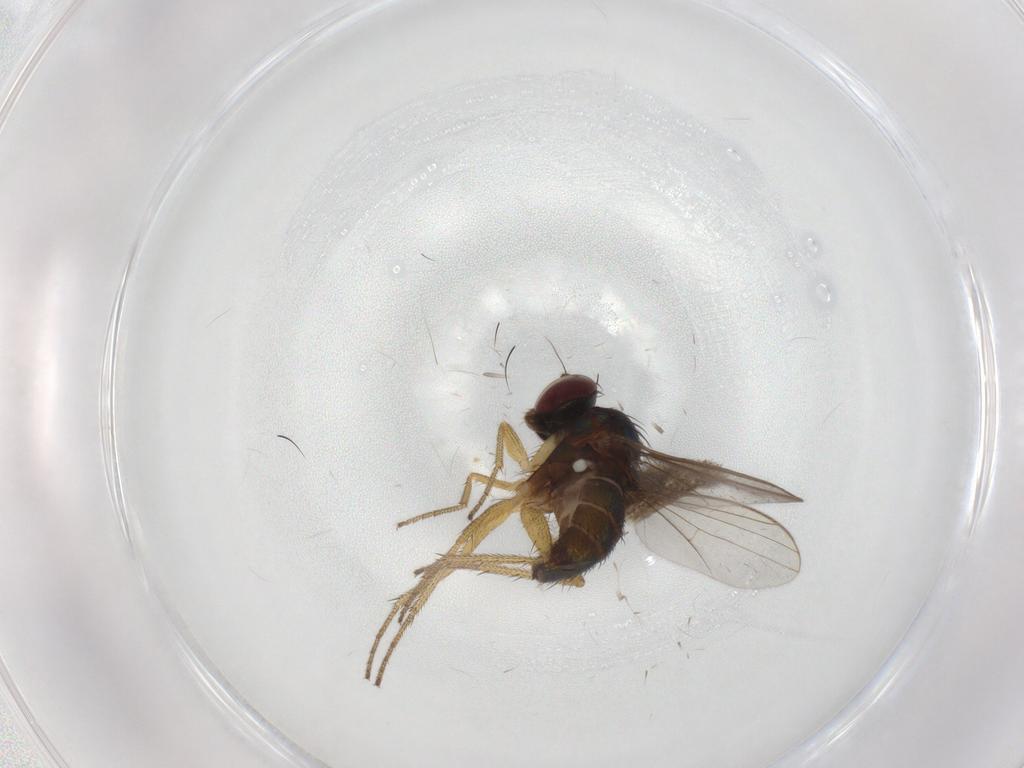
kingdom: Animalia
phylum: Arthropoda
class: Insecta
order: Diptera
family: Dolichopodidae
